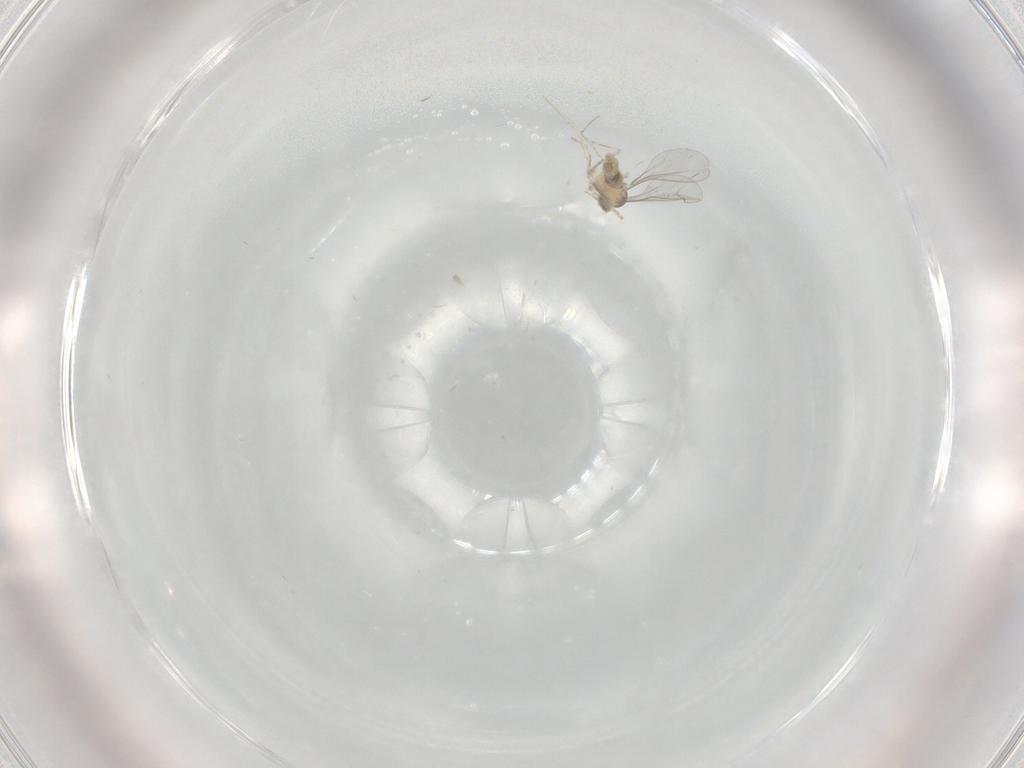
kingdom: Animalia
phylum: Arthropoda
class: Insecta
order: Diptera
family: Cecidomyiidae
